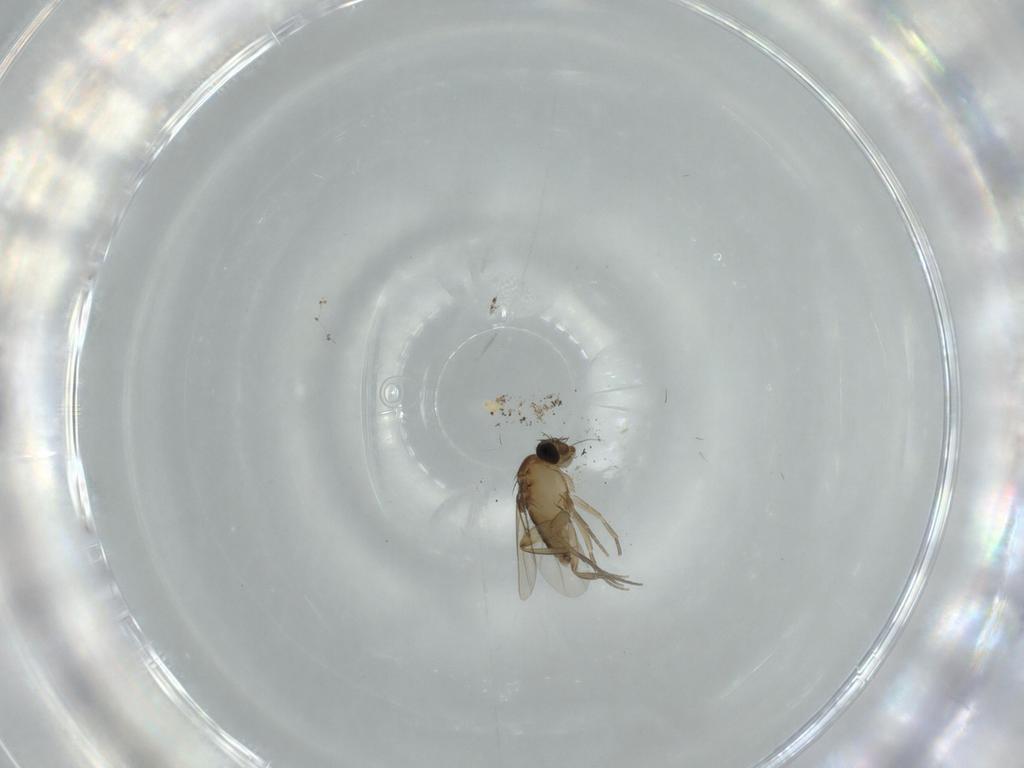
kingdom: Animalia
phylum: Arthropoda
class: Insecta
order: Diptera
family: Phoridae
